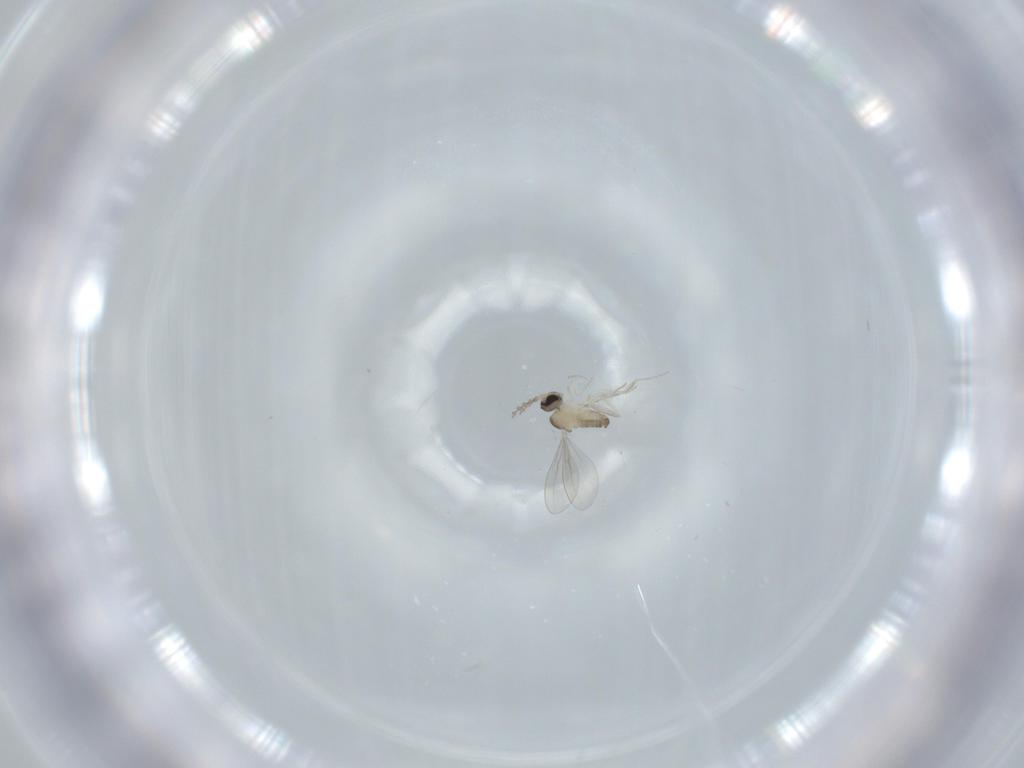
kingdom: Animalia
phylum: Arthropoda
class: Insecta
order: Diptera
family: Cecidomyiidae
